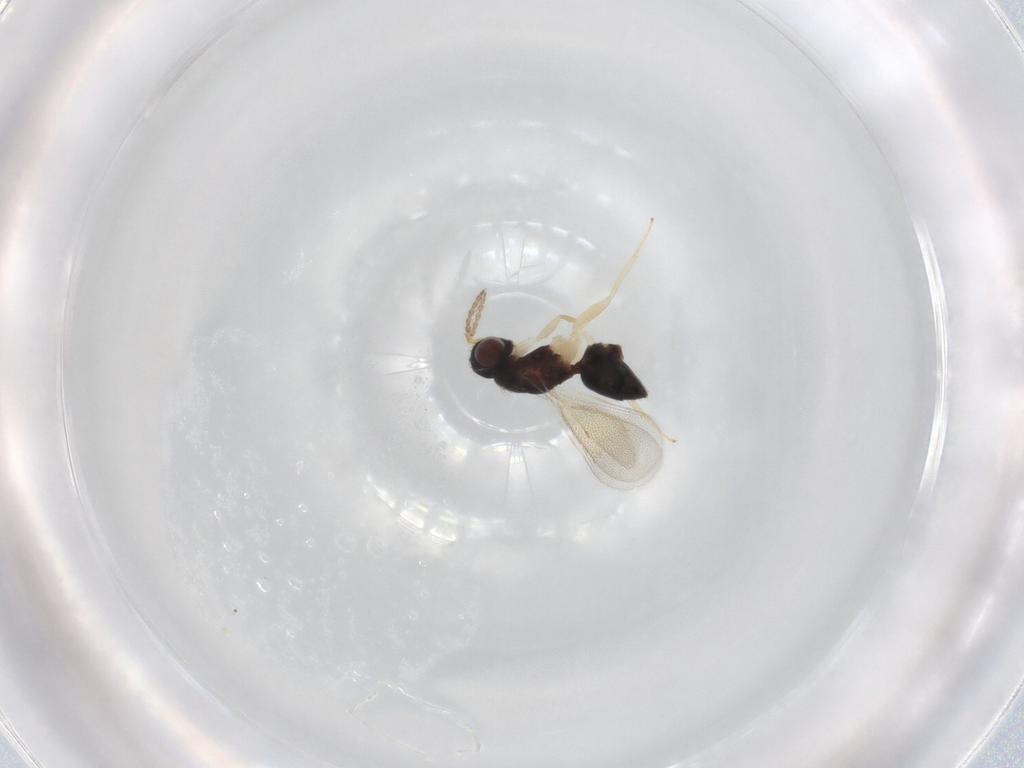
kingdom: Animalia
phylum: Arthropoda
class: Insecta
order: Hymenoptera
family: Eulophidae
